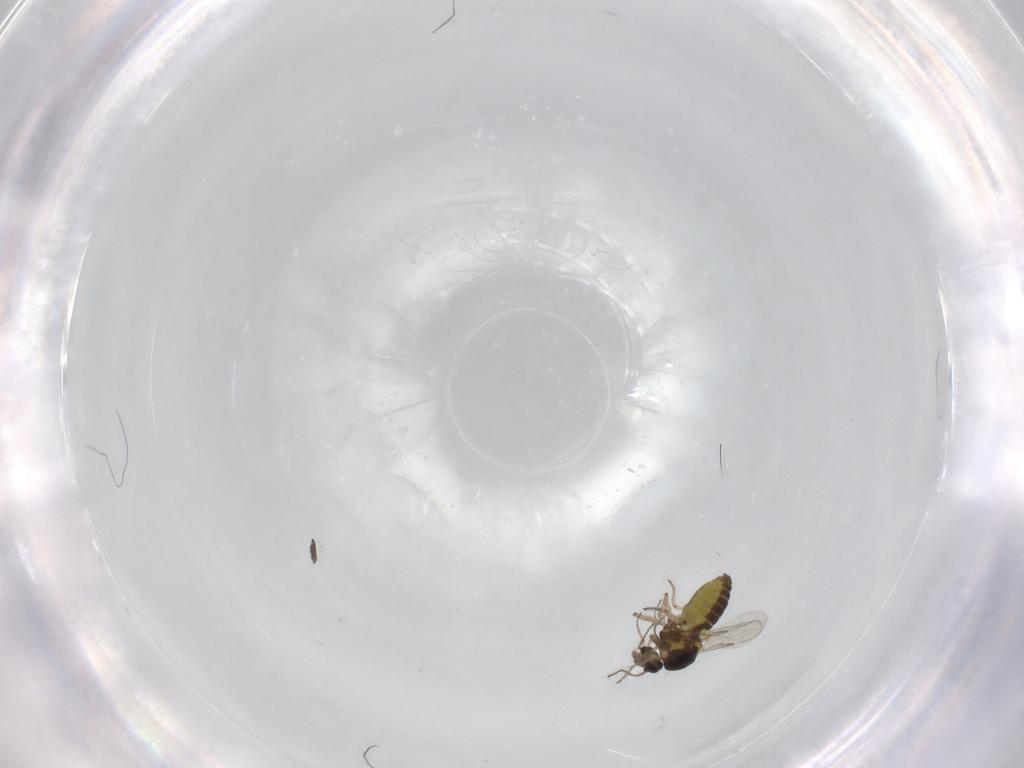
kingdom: Animalia
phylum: Arthropoda
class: Insecta
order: Diptera
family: Ceratopogonidae
